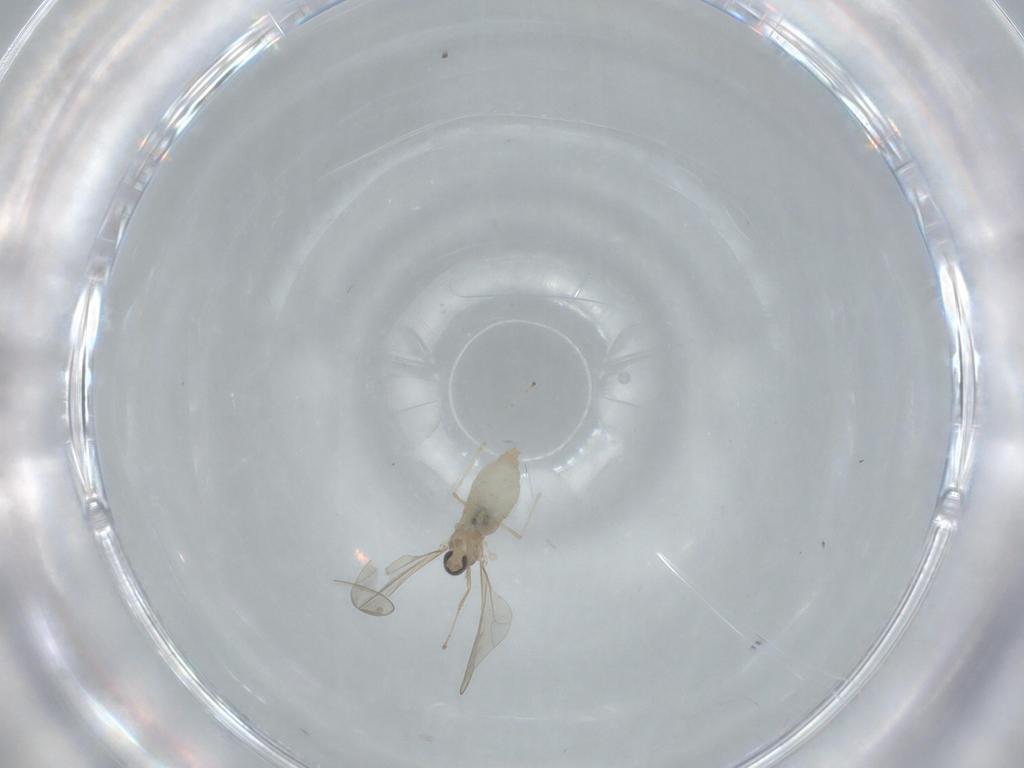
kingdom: Animalia
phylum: Arthropoda
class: Insecta
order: Diptera
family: Cecidomyiidae
